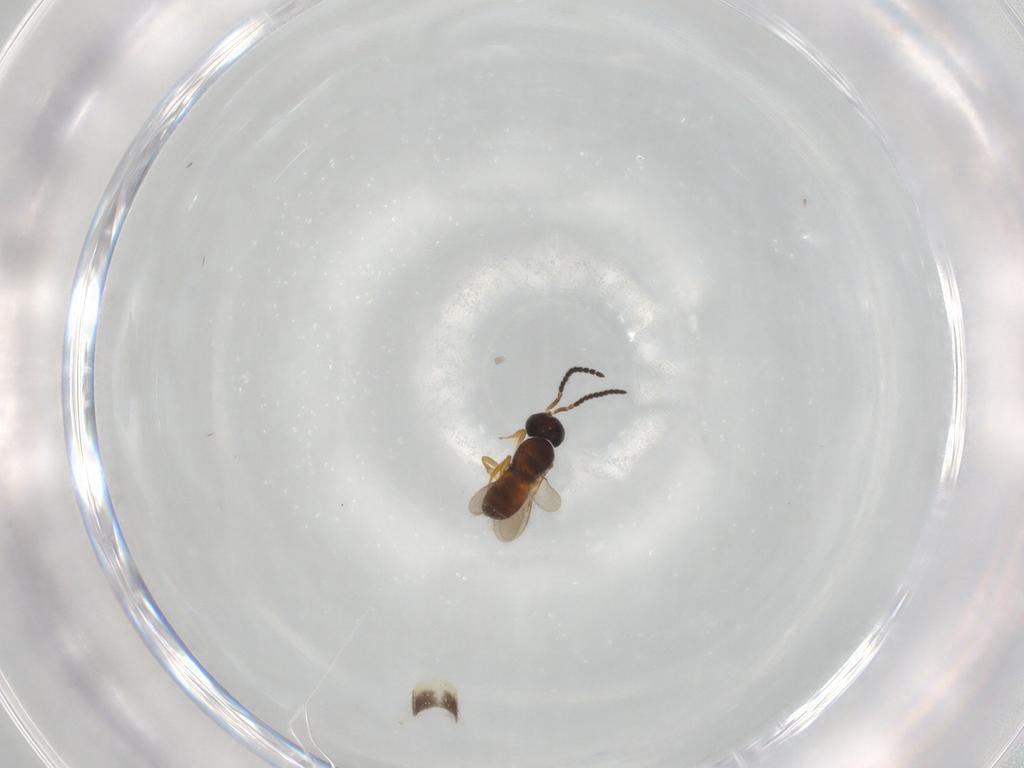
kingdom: Animalia
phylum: Arthropoda
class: Insecta
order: Hymenoptera
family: Scelionidae
